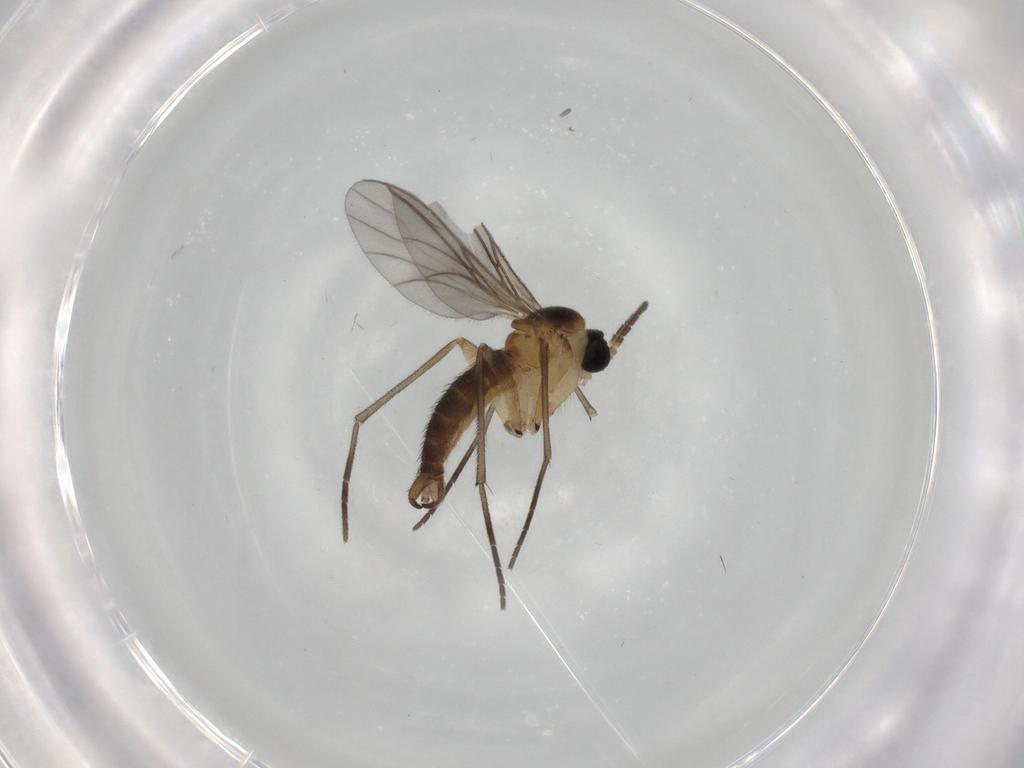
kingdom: Animalia
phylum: Arthropoda
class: Insecta
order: Diptera
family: Sciaridae
